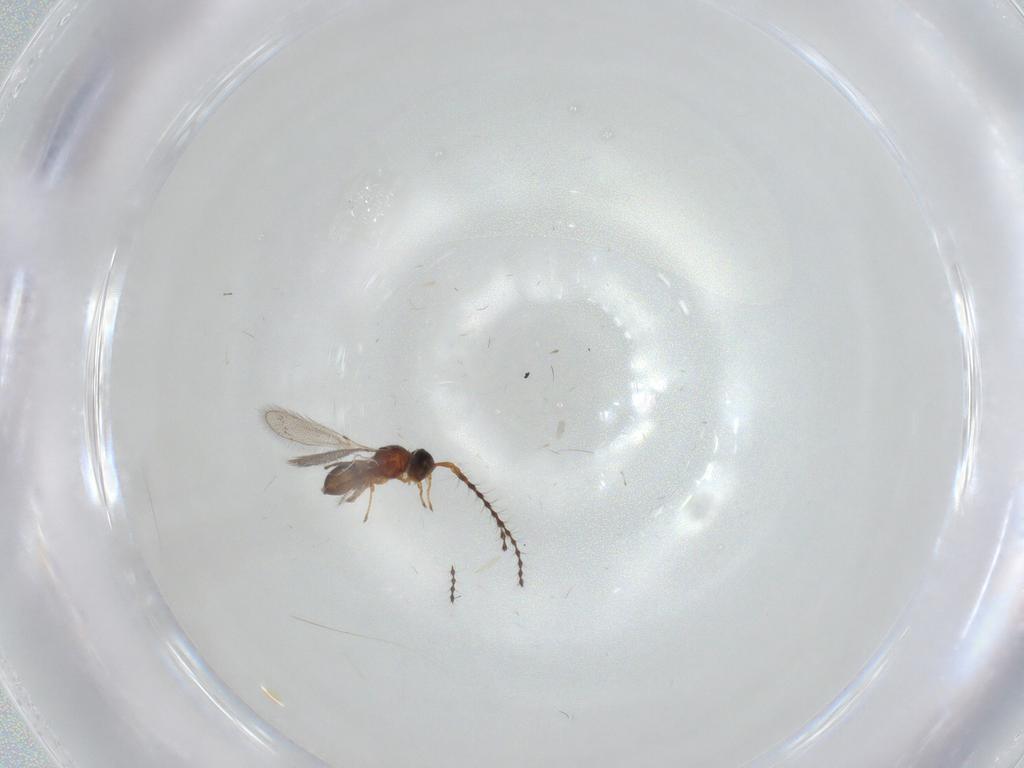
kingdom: Animalia
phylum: Arthropoda
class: Insecta
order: Hymenoptera
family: Diapriidae
